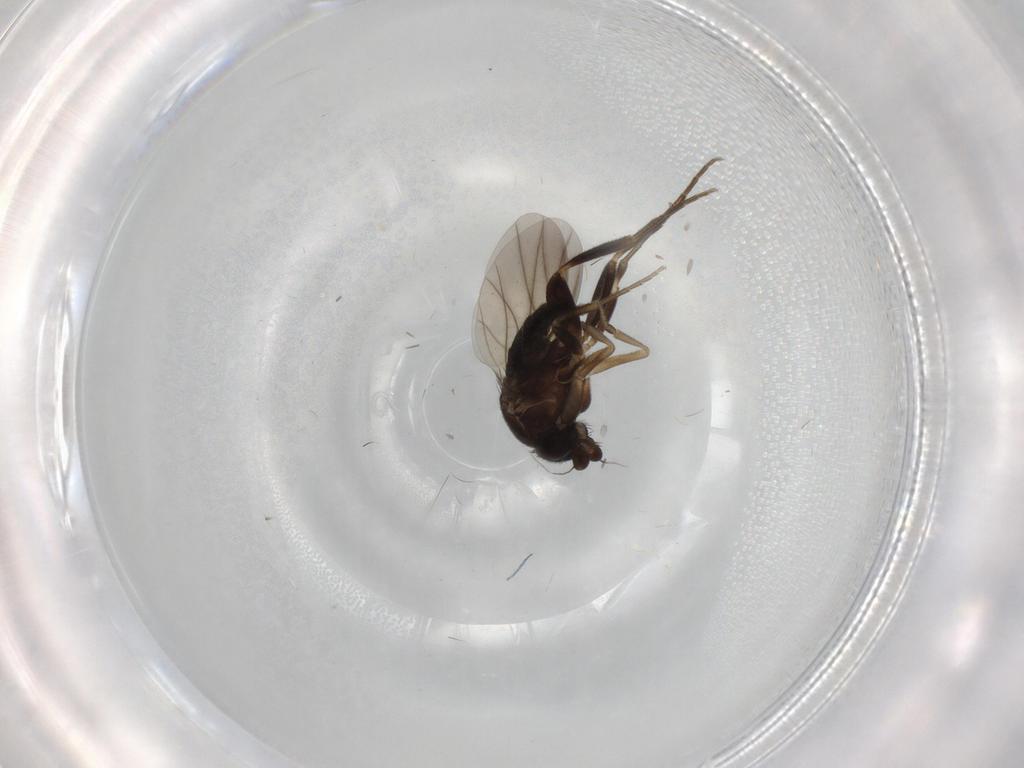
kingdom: Animalia
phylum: Arthropoda
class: Insecta
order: Diptera
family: Phoridae
